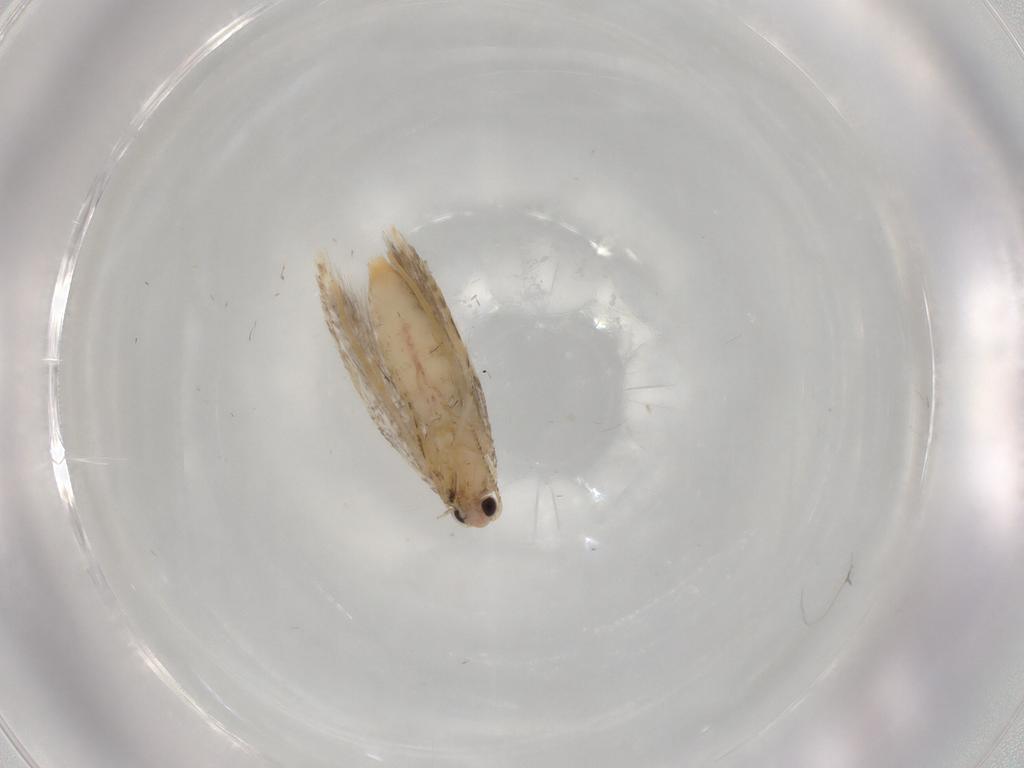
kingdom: Animalia
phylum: Arthropoda
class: Insecta
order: Lepidoptera
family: Tineidae
